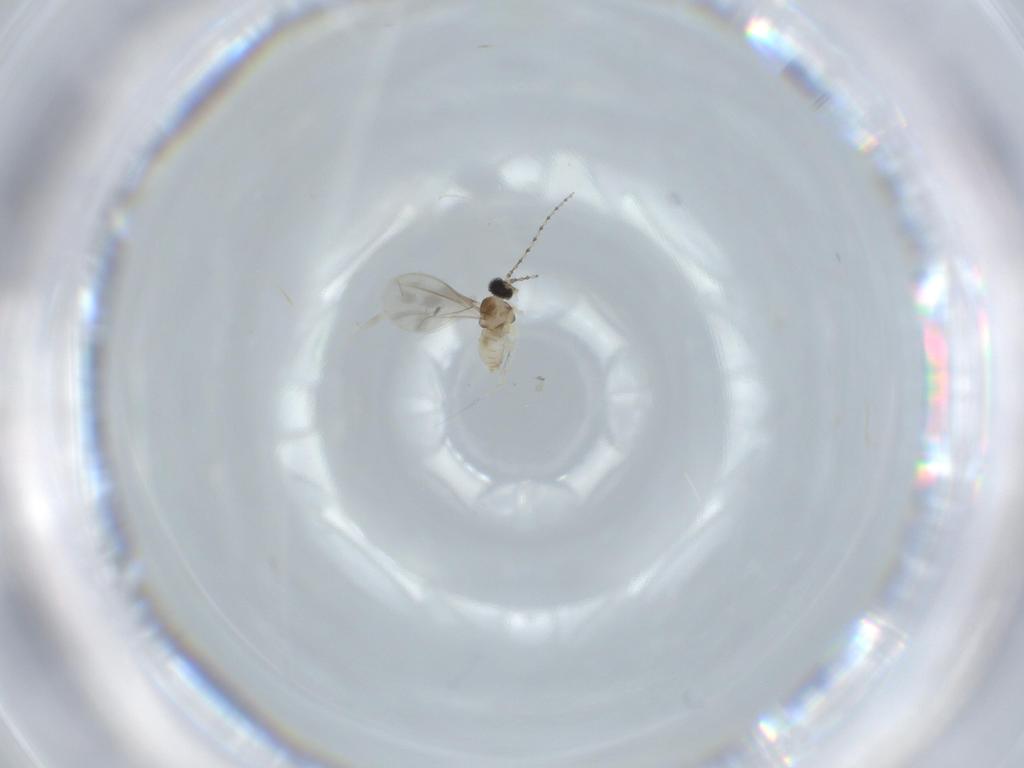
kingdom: Animalia
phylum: Arthropoda
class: Insecta
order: Diptera
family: Cecidomyiidae
